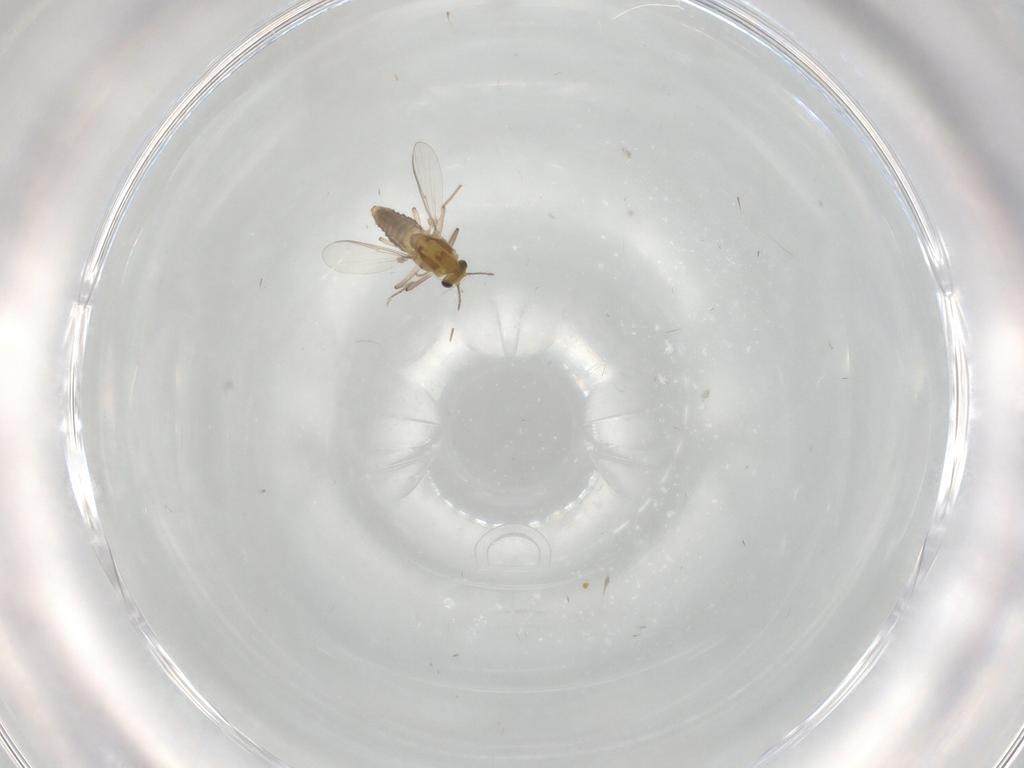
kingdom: Animalia
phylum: Arthropoda
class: Insecta
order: Diptera
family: Chironomidae
